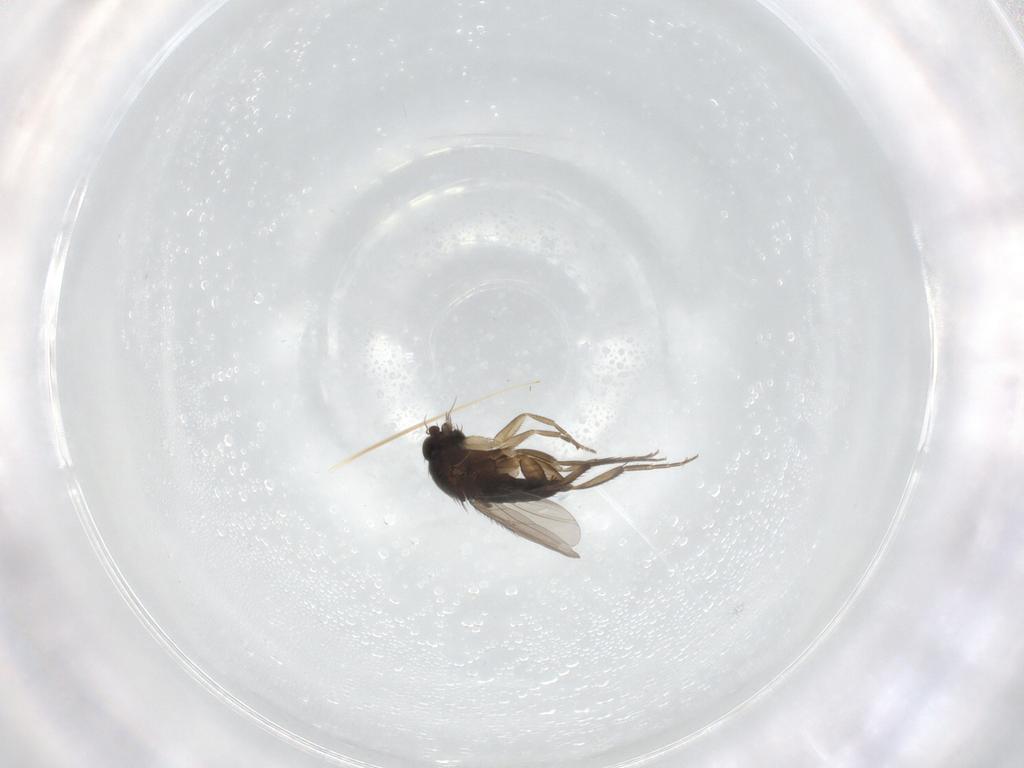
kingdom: Animalia
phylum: Arthropoda
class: Insecta
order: Diptera
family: Phoridae
